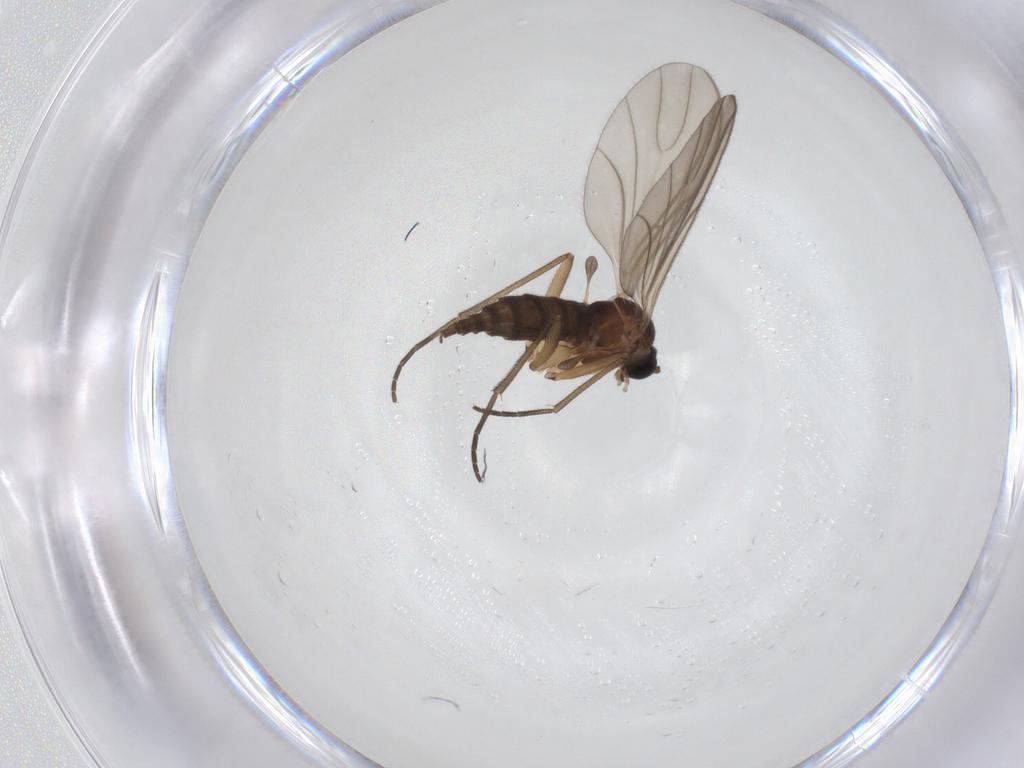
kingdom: Animalia
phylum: Arthropoda
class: Insecta
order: Diptera
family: Sciaridae
